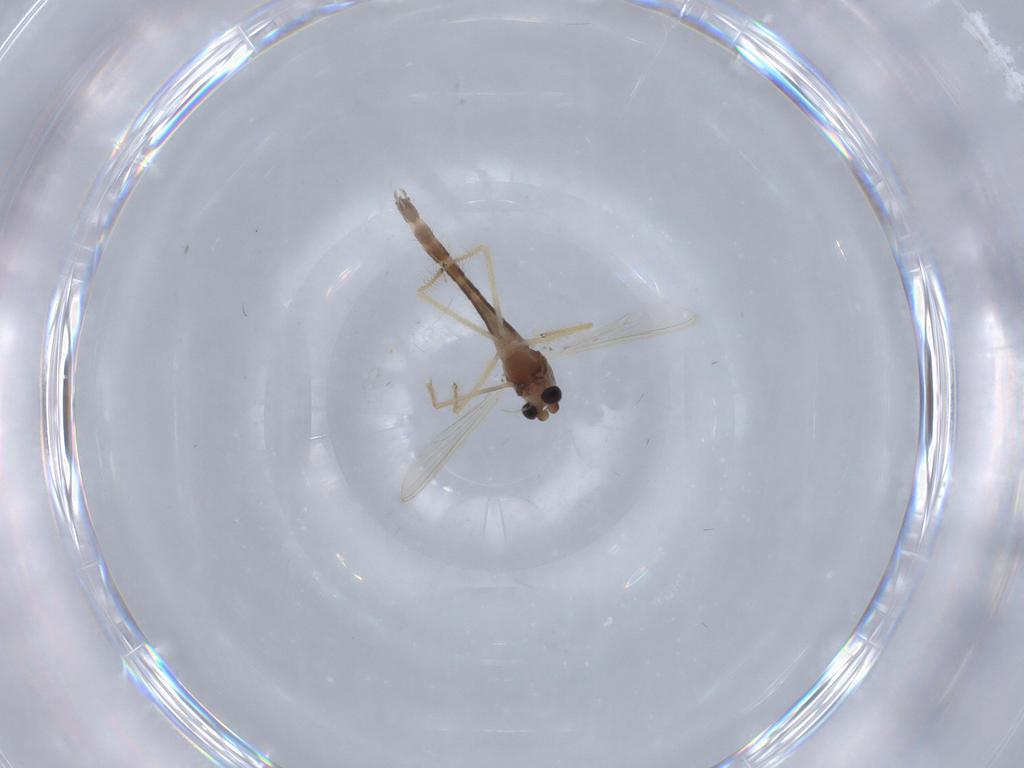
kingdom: Animalia
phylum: Arthropoda
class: Insecta
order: Diptera
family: Chironomidae
